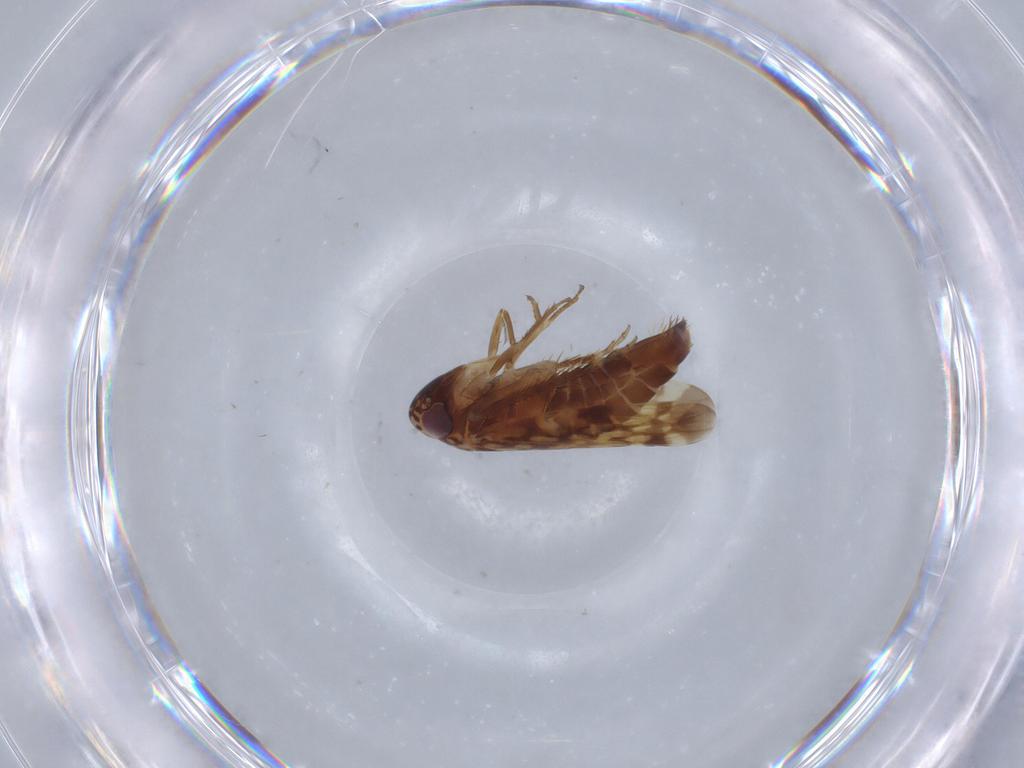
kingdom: Animalia
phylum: Arthropoda
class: Insecta
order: Hemiptera
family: Cicadellidae
